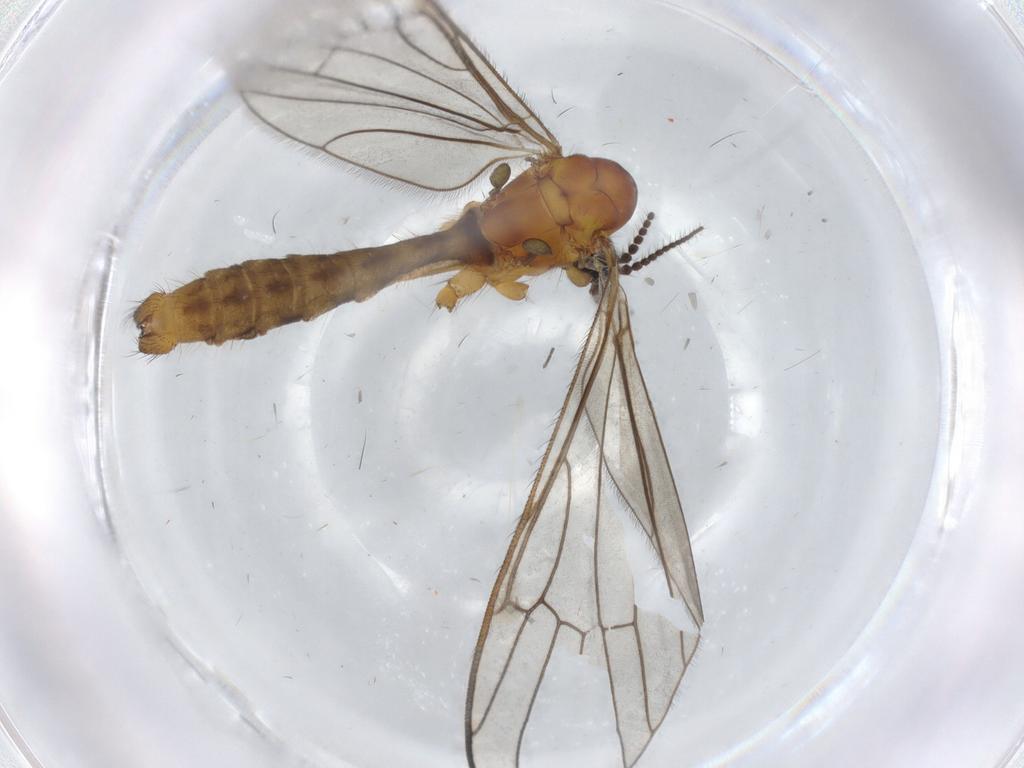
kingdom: Animalia
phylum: Arthropoda
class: Insecta
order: Diptera
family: Limoniidae
